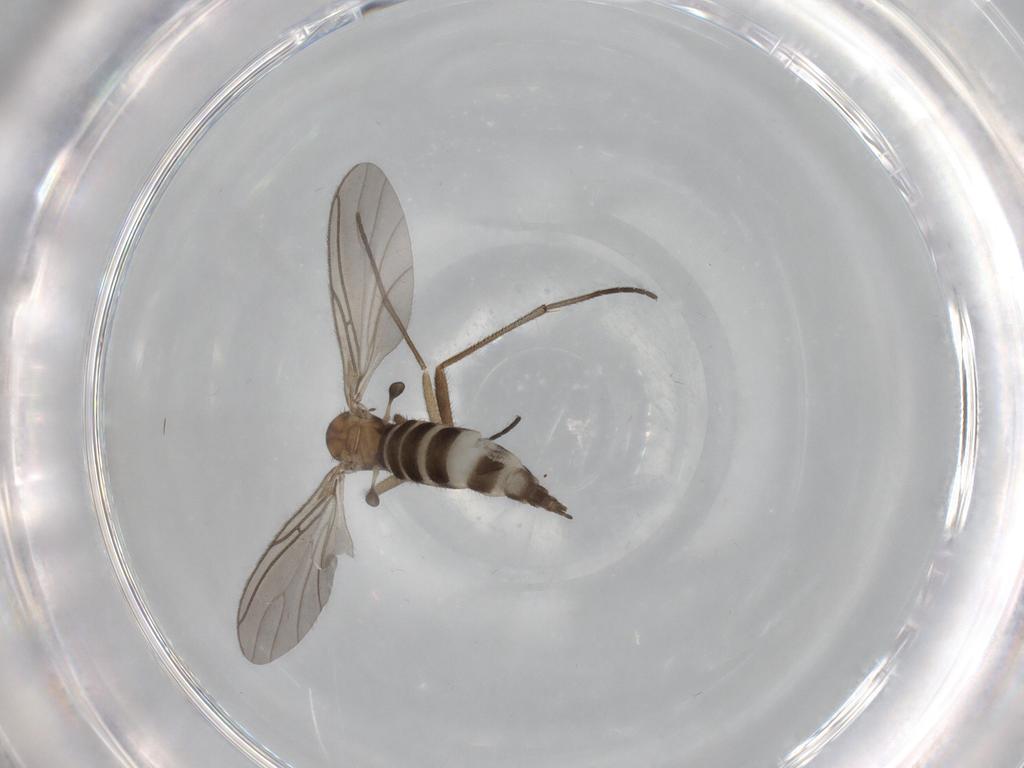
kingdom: Animalia
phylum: Arthropoda
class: Insecta
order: Diptera
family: Sciaridae
